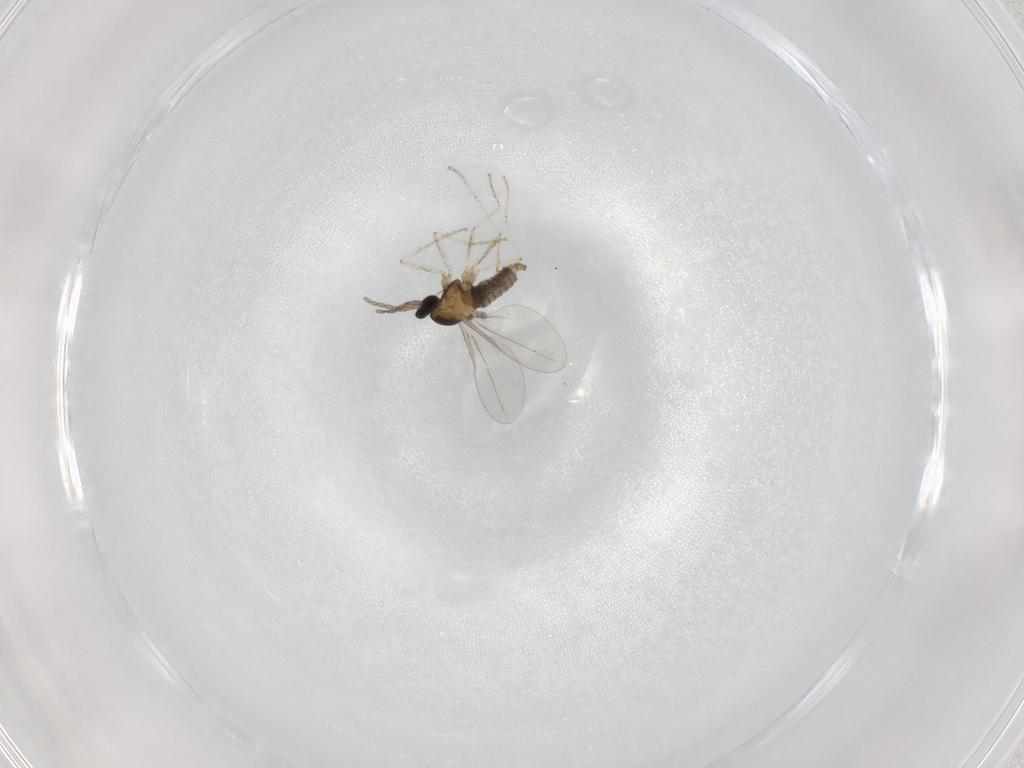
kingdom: Animalia
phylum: Arthropoda
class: Insecta
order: Diptera
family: Cecidomyiidae
